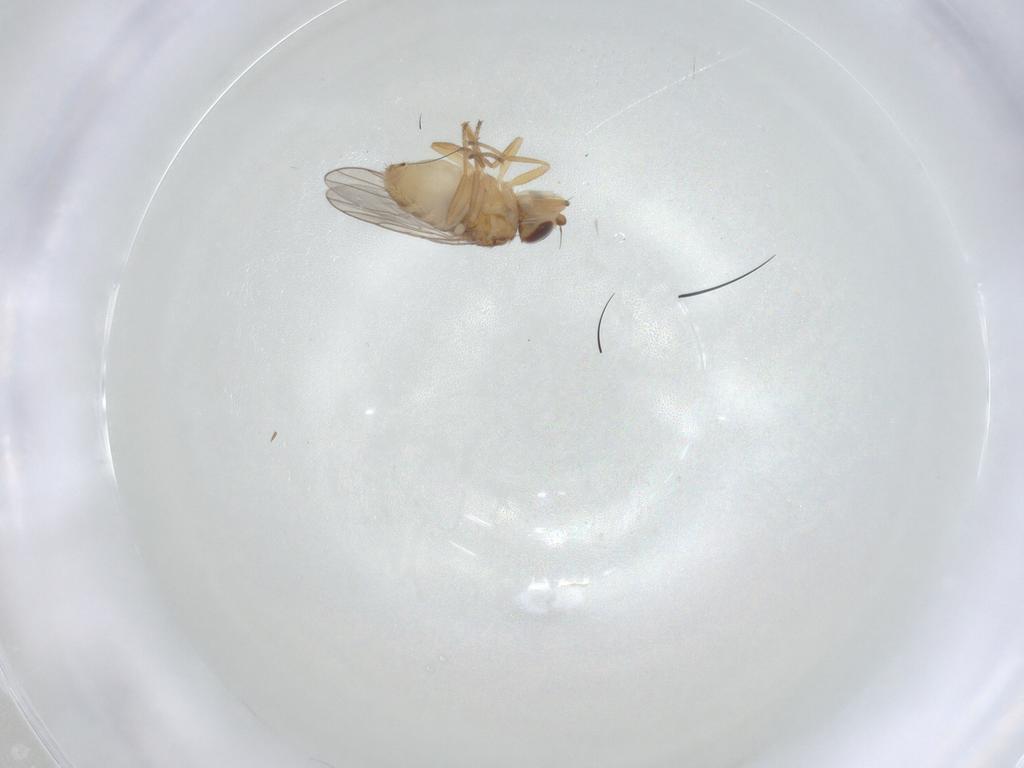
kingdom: Animalia
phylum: Arthropoda
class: Insecta
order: Diptera
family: Chloropidae
